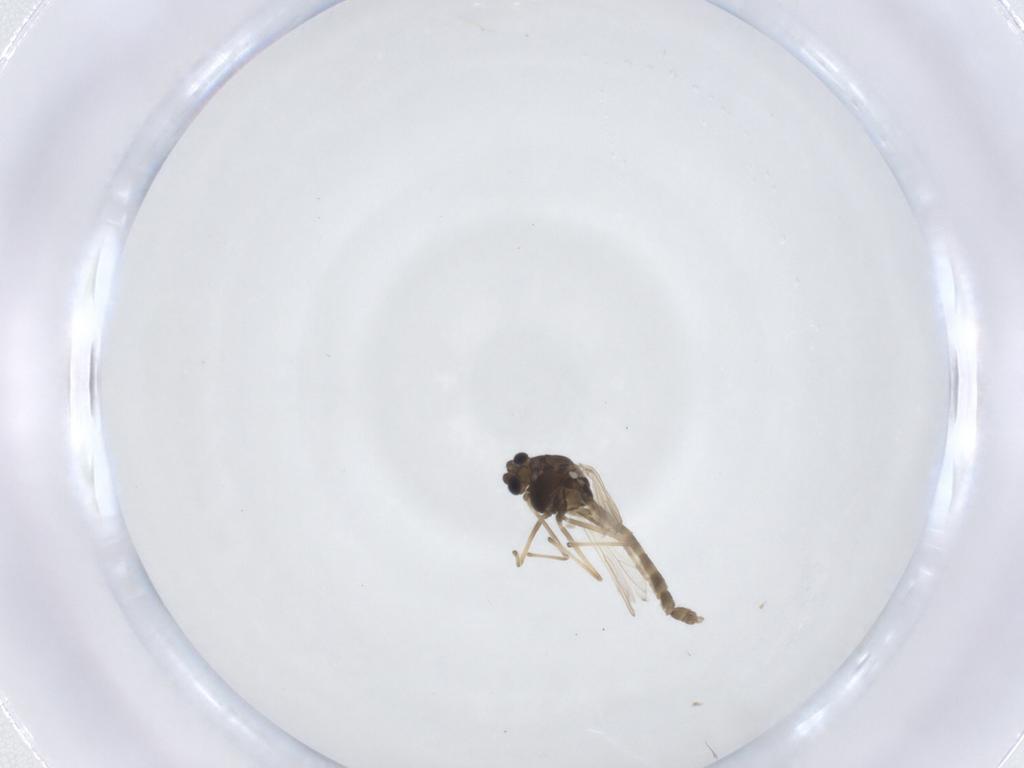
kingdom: Animalia
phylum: Arthropoda
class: Insecta
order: Diptera
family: Chironomidae
